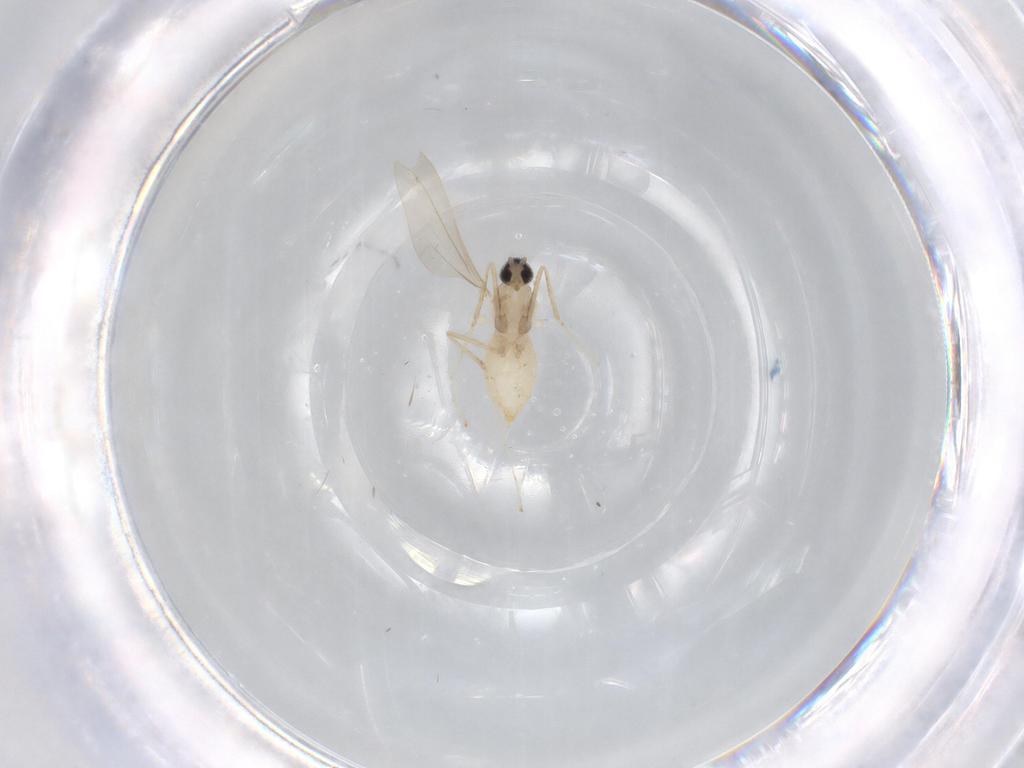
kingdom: Animalia
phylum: Arthropoda
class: Insecta
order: Diptera
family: Cecidomyiidae
